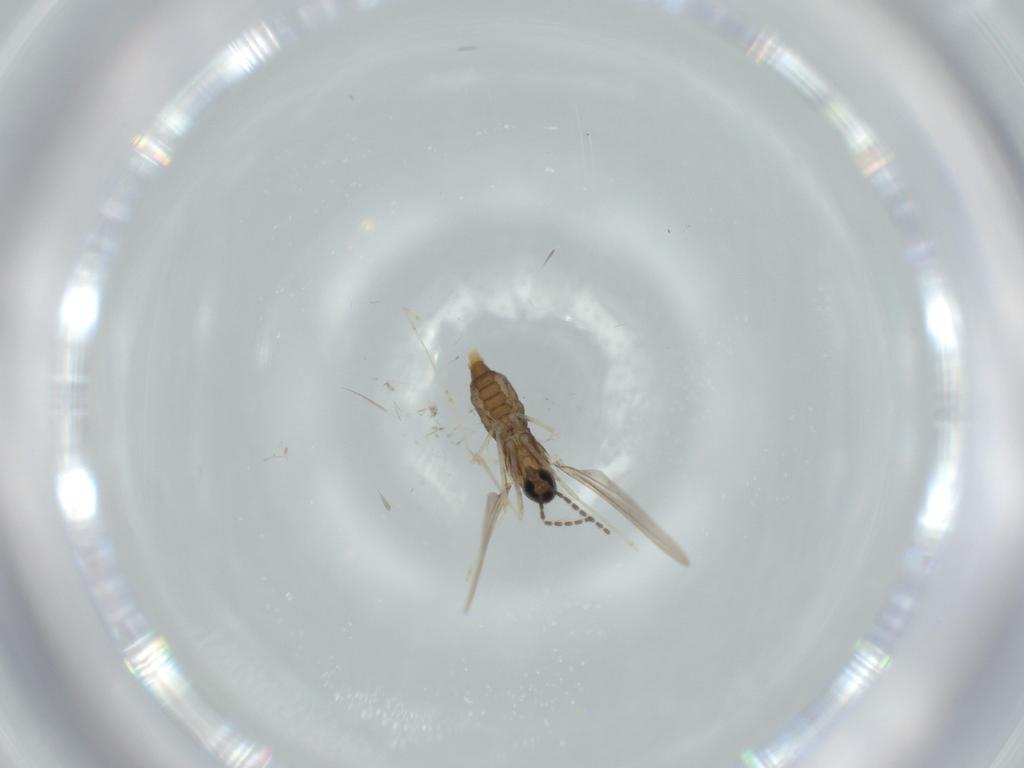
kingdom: Animalia
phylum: Arthropoda
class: Insecta
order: Diptera
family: Cecidomyiidae
